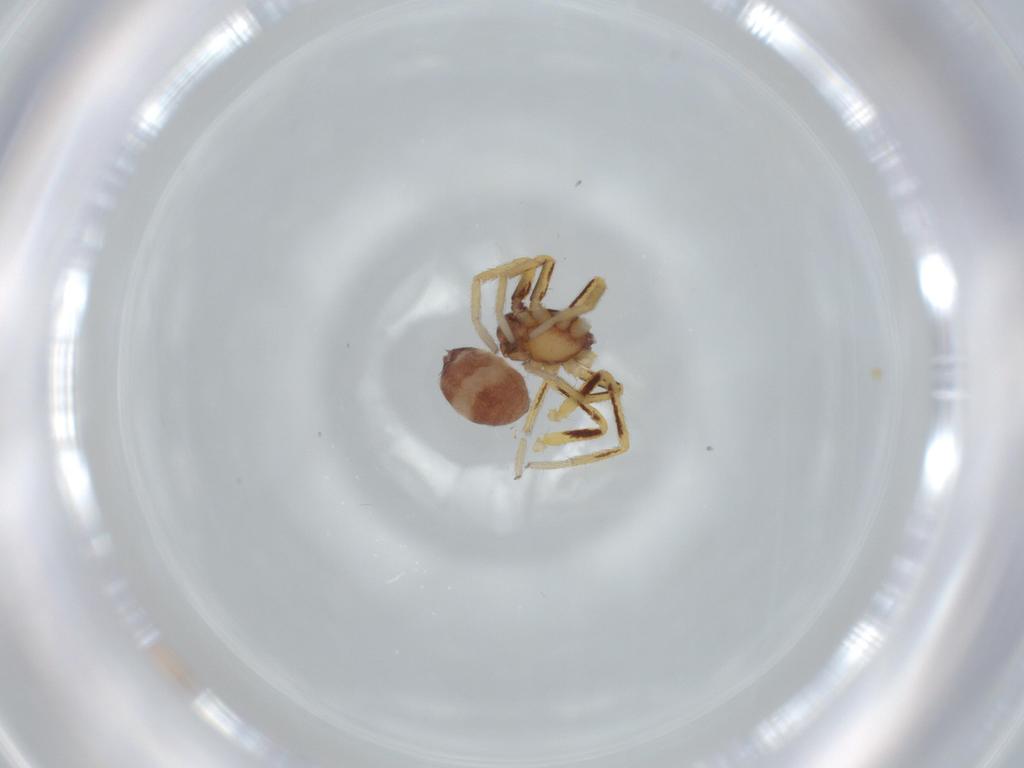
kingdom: Animalia
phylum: Arthropoda
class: Arachnida
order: Araneae
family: Corinnidae
